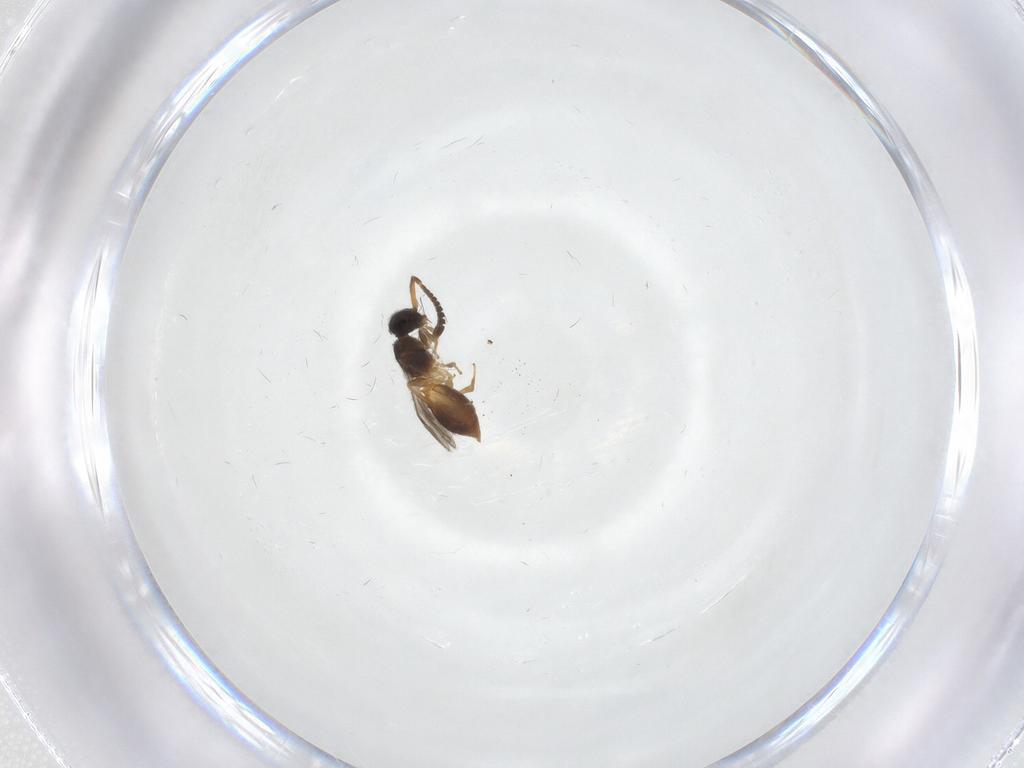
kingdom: Animalia
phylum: Arthropoda
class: Insecta
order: Hymenoptera
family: Megaspilidae
